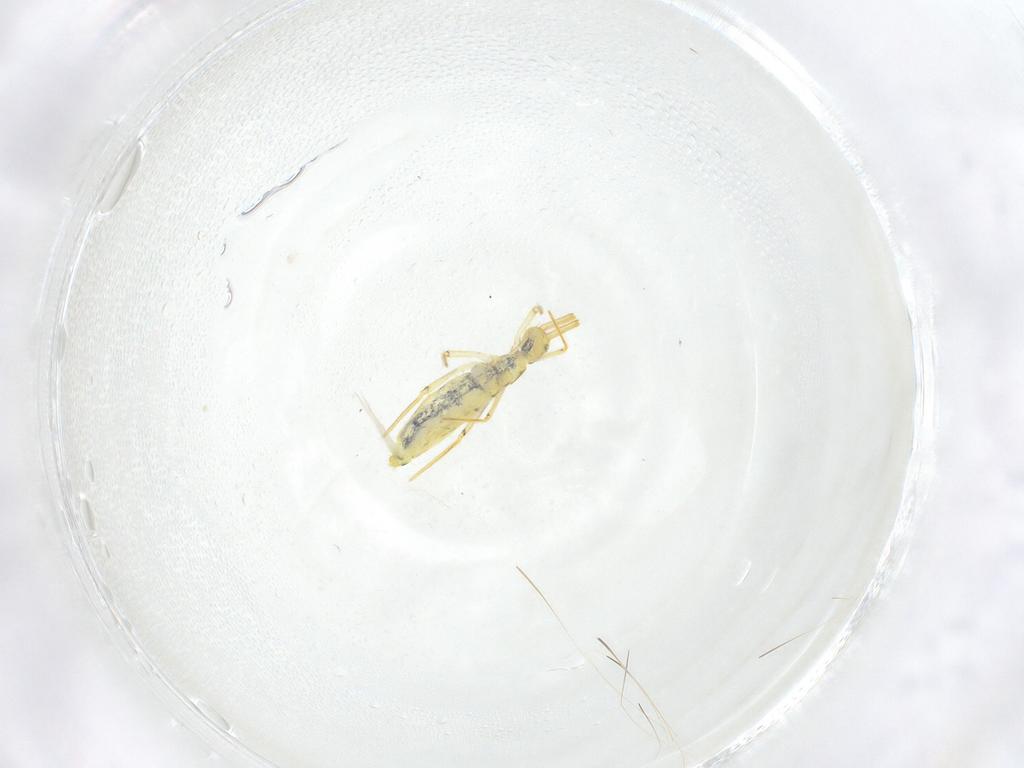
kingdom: Animalia
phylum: Arthropoda
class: Collembola
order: Entomobryomorpha
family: Entomobryidae
